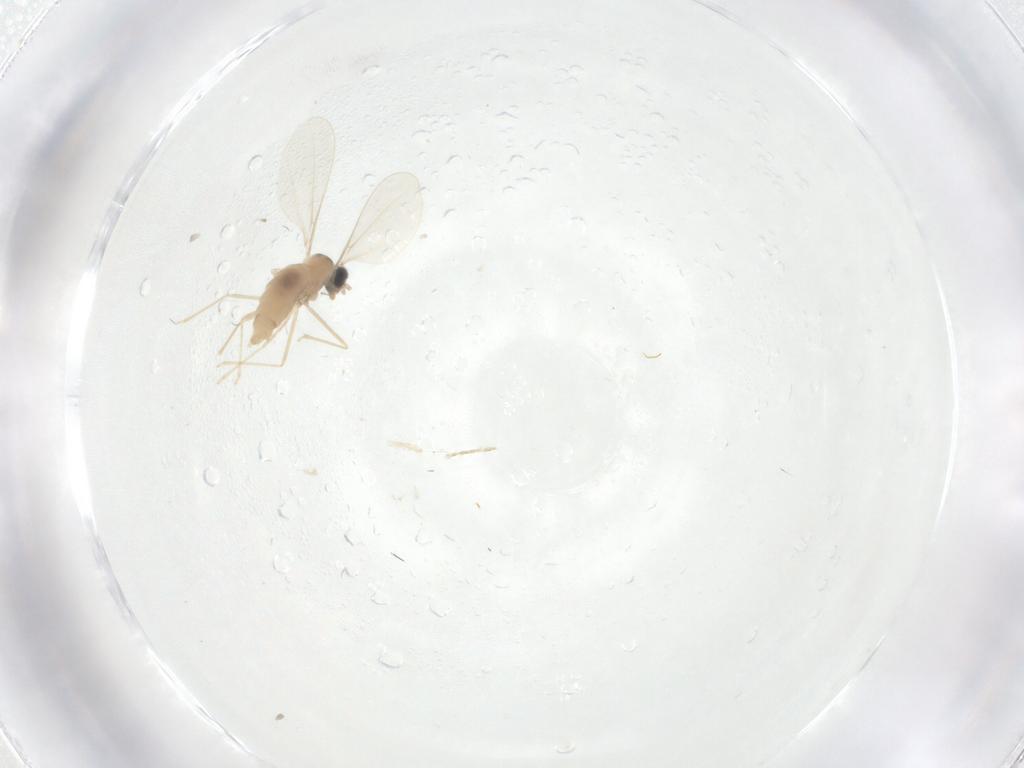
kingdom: Animalia
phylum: Arthropoda
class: Insecta
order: Diptera
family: Cecidomyiidae
